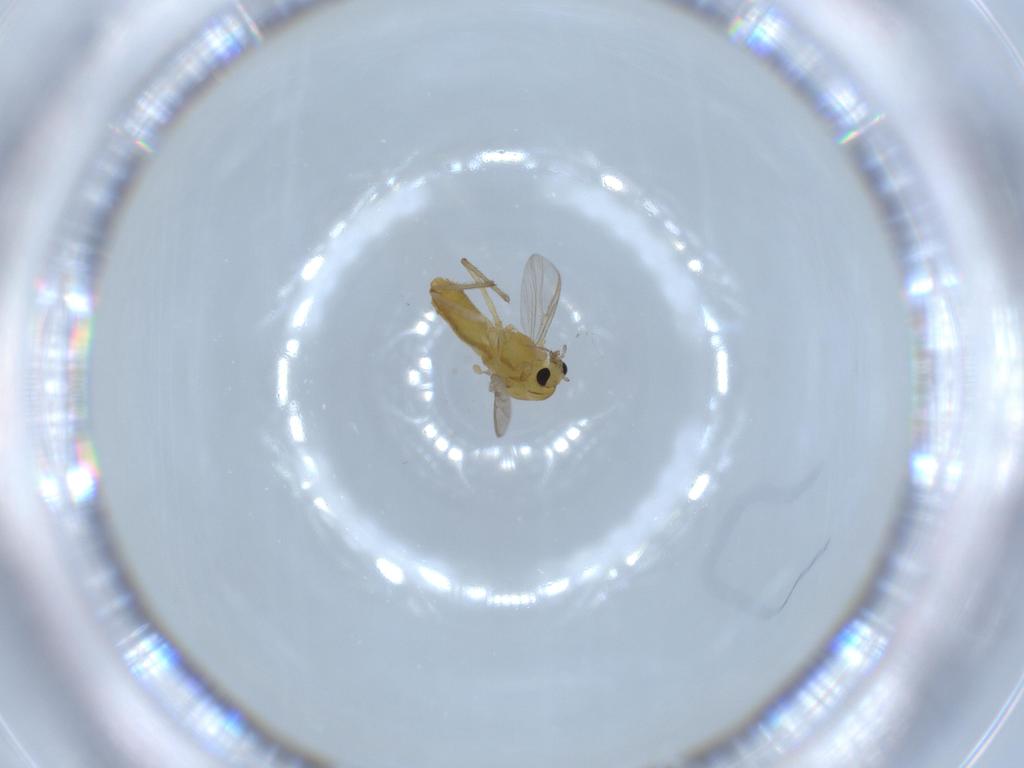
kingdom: Animalia
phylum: Arthropoda
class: Insecta
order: Diptera
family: Chironomidae
